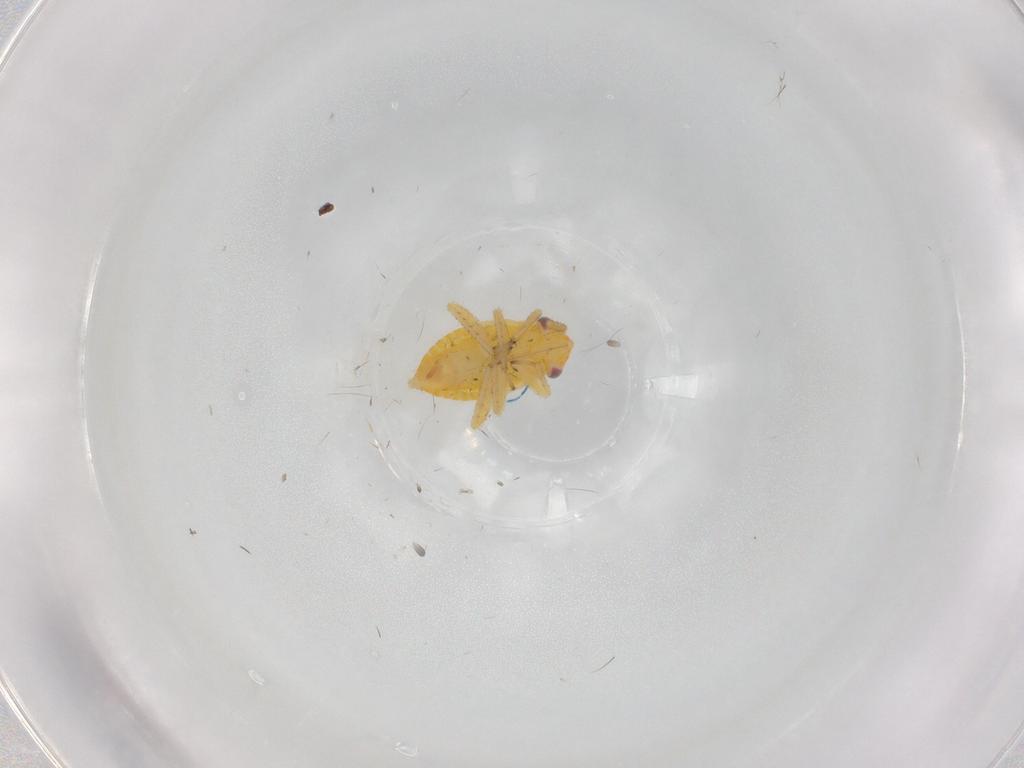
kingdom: Animalia
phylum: Arthropoda
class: Insecta
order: Hemiptera
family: Miridae
